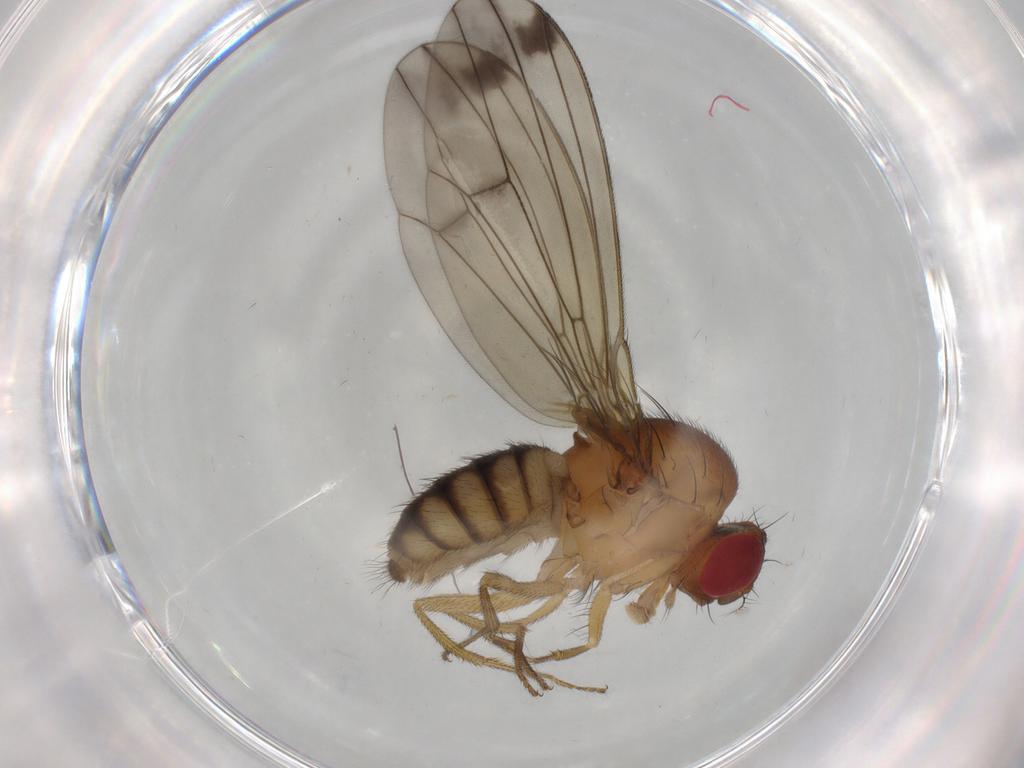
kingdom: Animalia
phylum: Arthropoda
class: Insecta
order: Diptera
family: Drosophilidae
